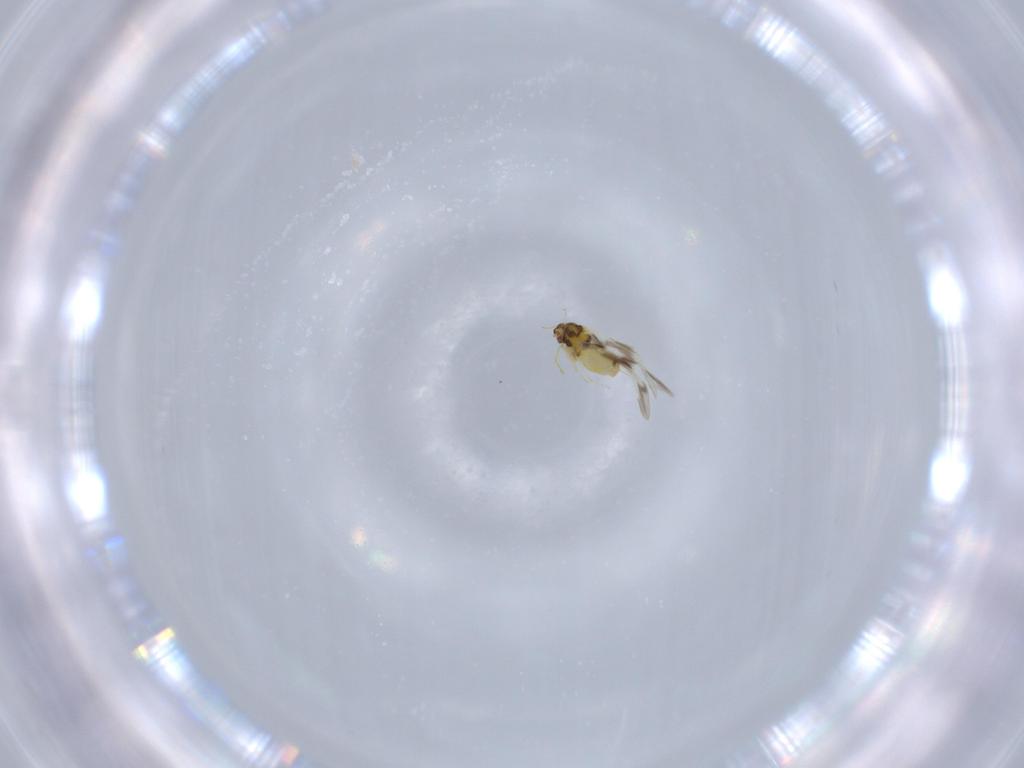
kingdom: Animalia
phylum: Arthropoda
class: Insecta
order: Hemiptera
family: Aleyrodidae
